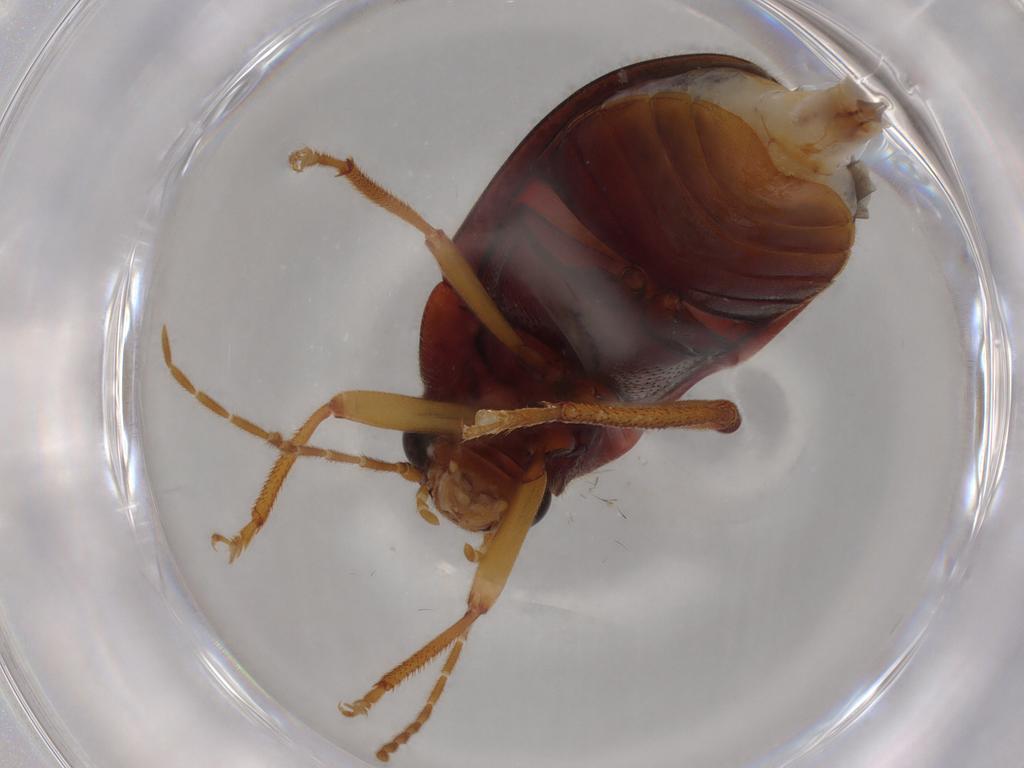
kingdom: Animalia
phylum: Arthropoda
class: Insecta
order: Coleoptera
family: Ptilodactylidae
